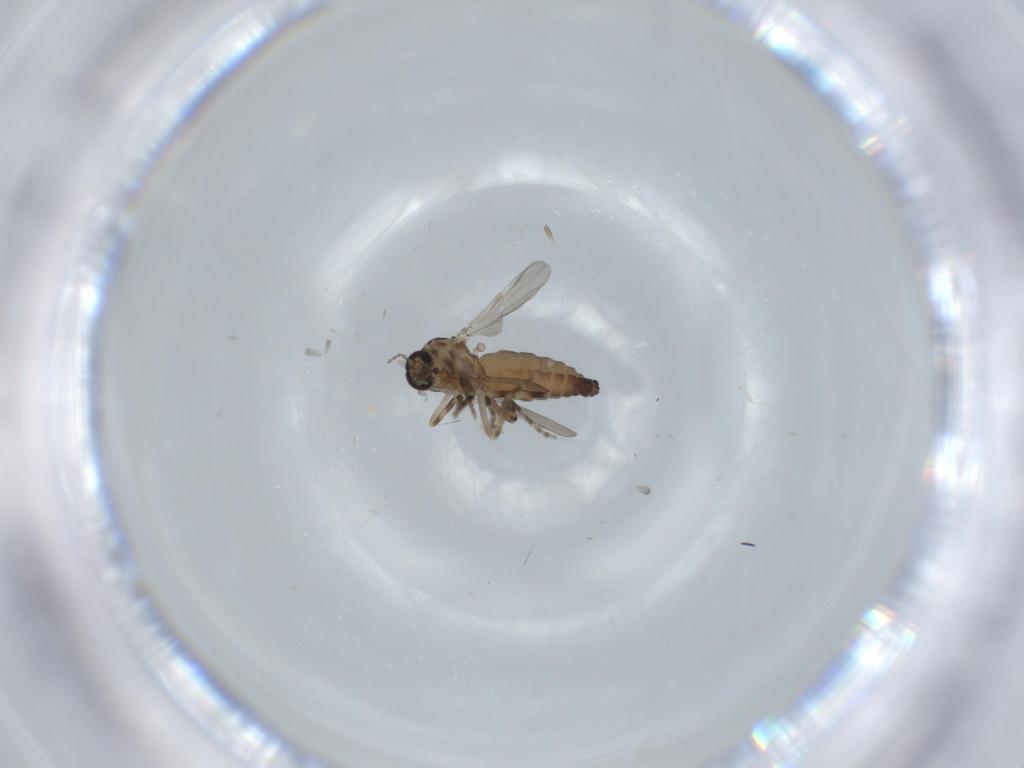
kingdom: Animalia
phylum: Arthropoda
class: Insecta
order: Diptera
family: Ceratopogonidae
